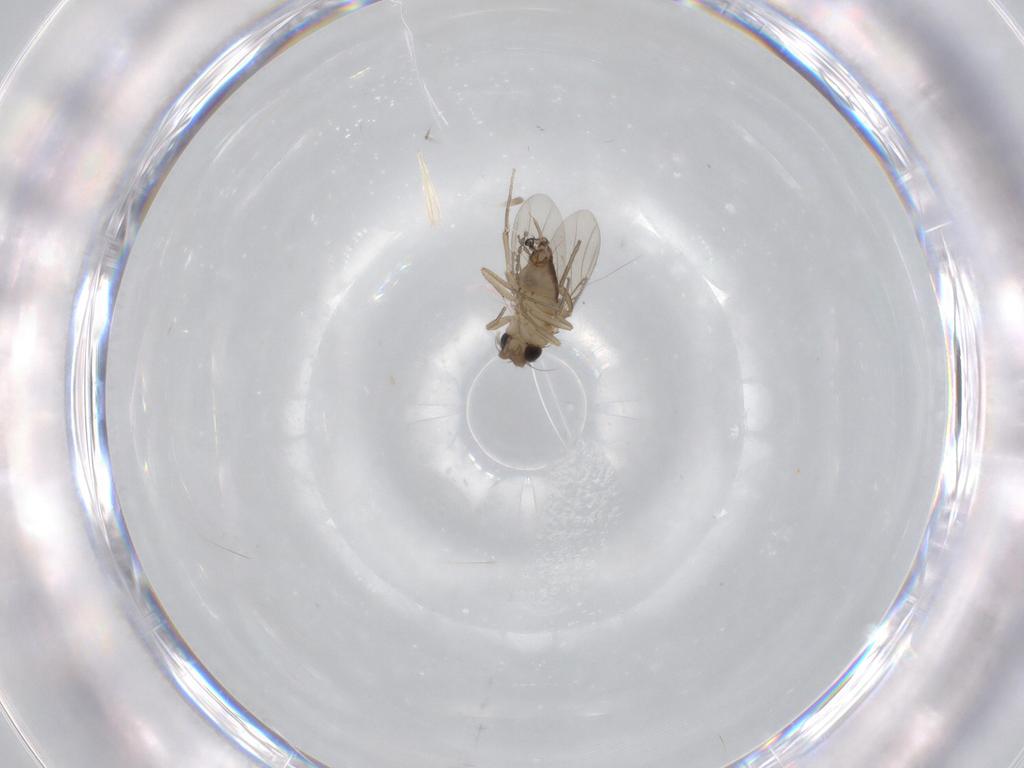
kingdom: Animalia
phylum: Arthropoda
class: Insecta
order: Diptera
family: Cecidomyiidae
